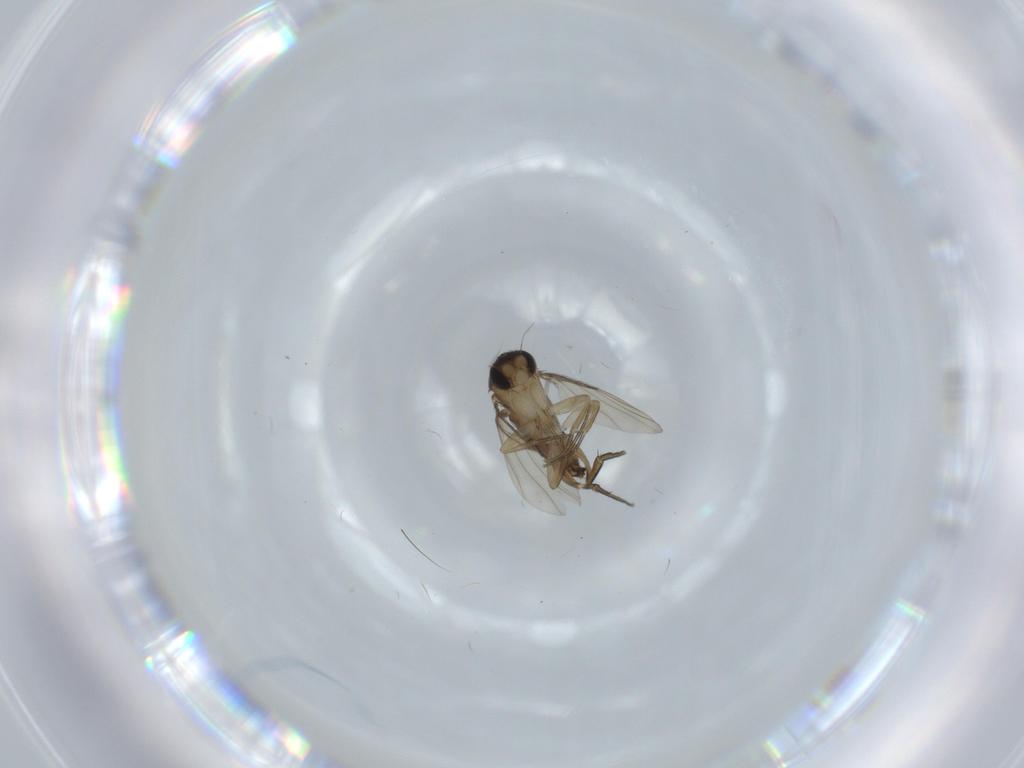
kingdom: Animalia
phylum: Arthropoda
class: Insecta
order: Diptera
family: Phoridae
